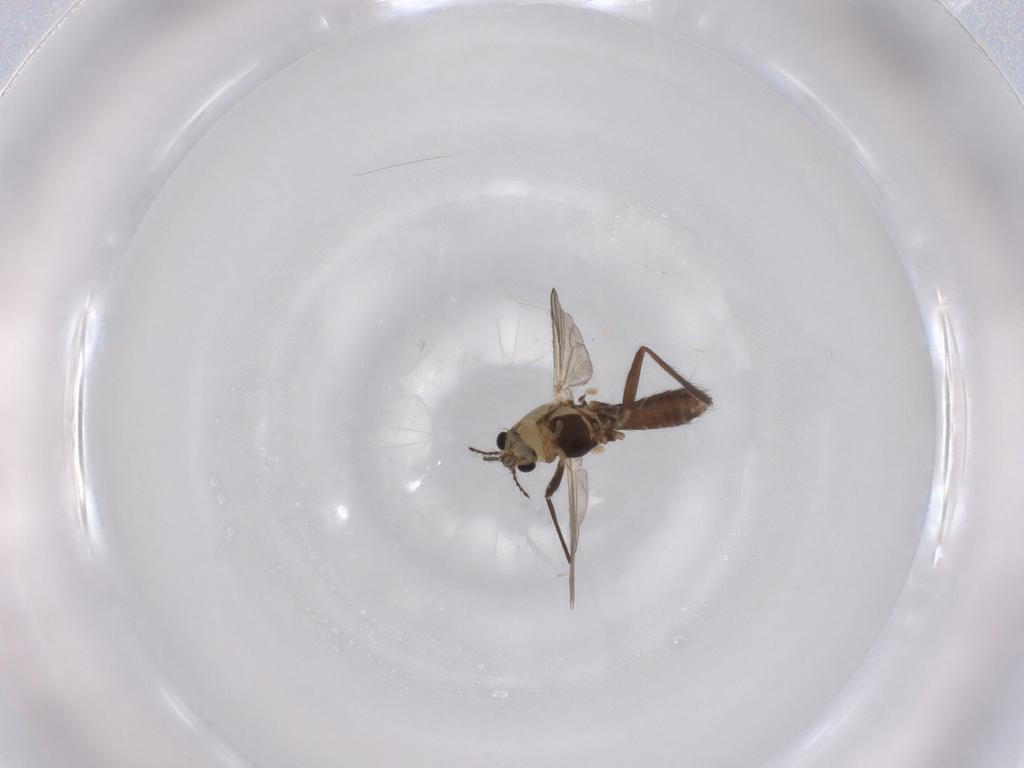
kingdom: Animalia
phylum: Arthropoda
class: Insecta
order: Diptera
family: Chironomidae
